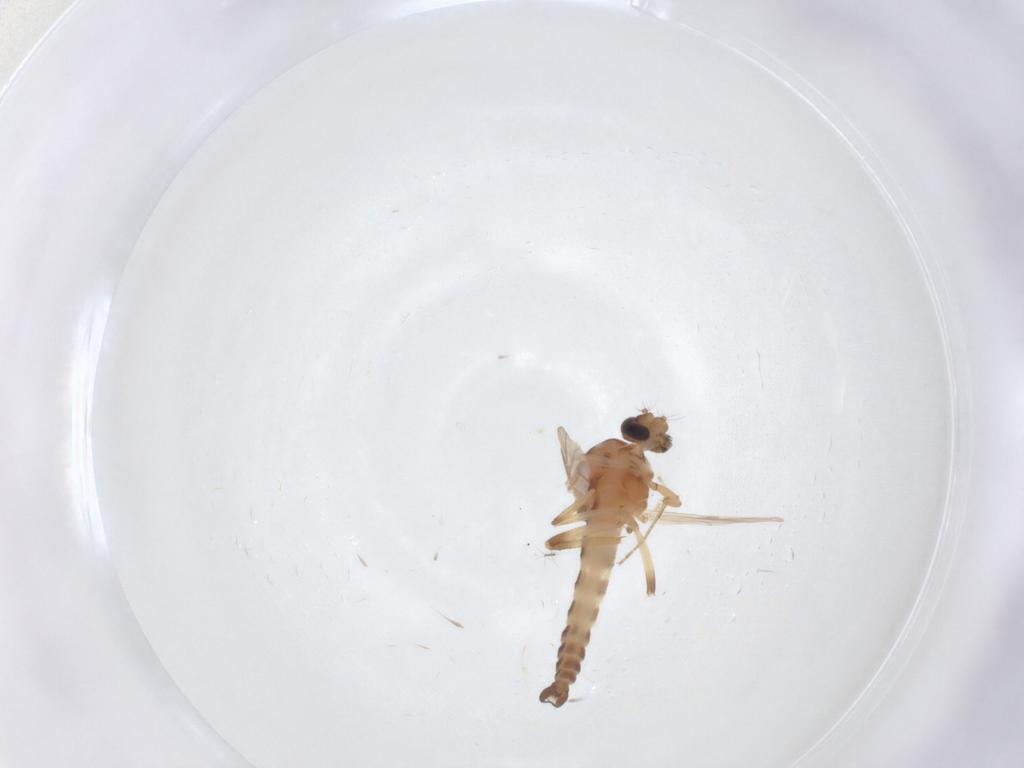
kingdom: Animalia
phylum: Arthropoda
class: Insecta
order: Diptera
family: Ceratopogonidae
